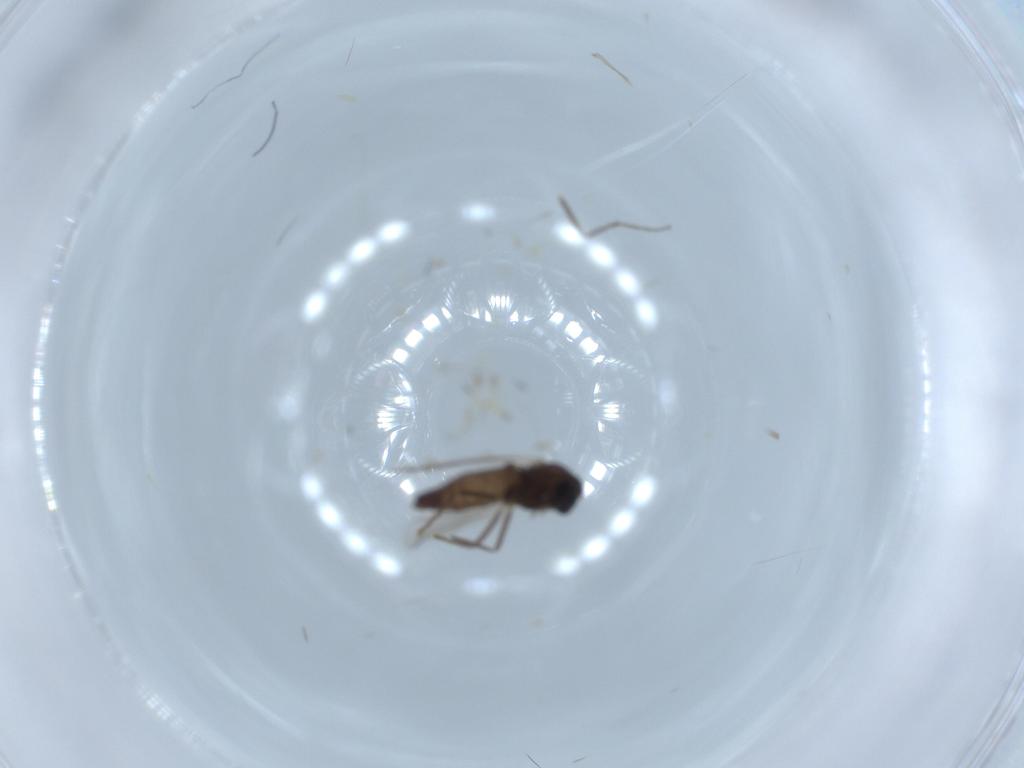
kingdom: Animalia
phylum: Arthropoda
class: Insecta
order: Diptera
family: Chironomidae
